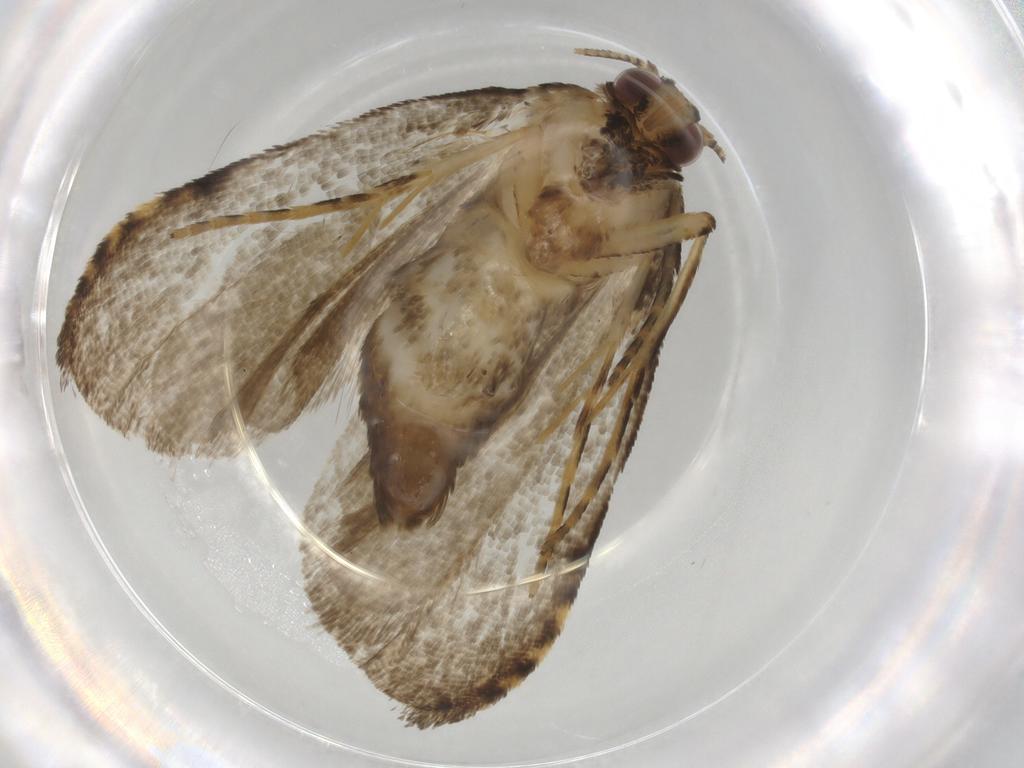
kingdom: Animalia
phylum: Arthropoda
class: Insecta
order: Lepidoptera
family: Erebidae
